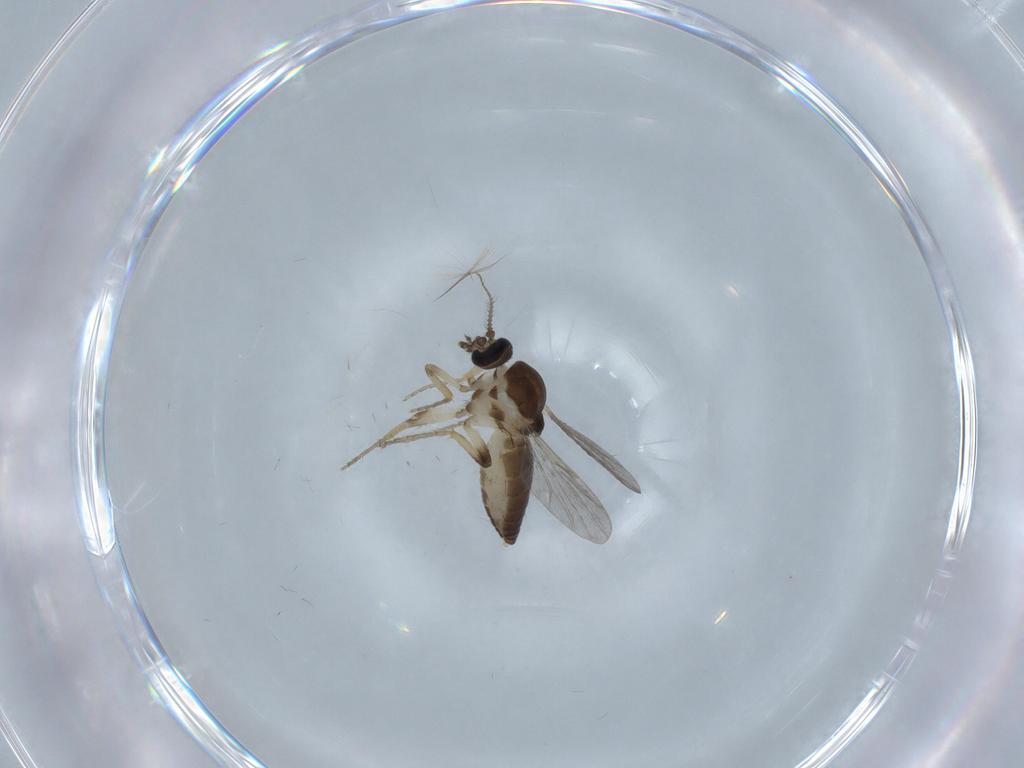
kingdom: Animalia
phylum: Arthropoda
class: Insecta
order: Diptera
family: Ceratopogonidae
